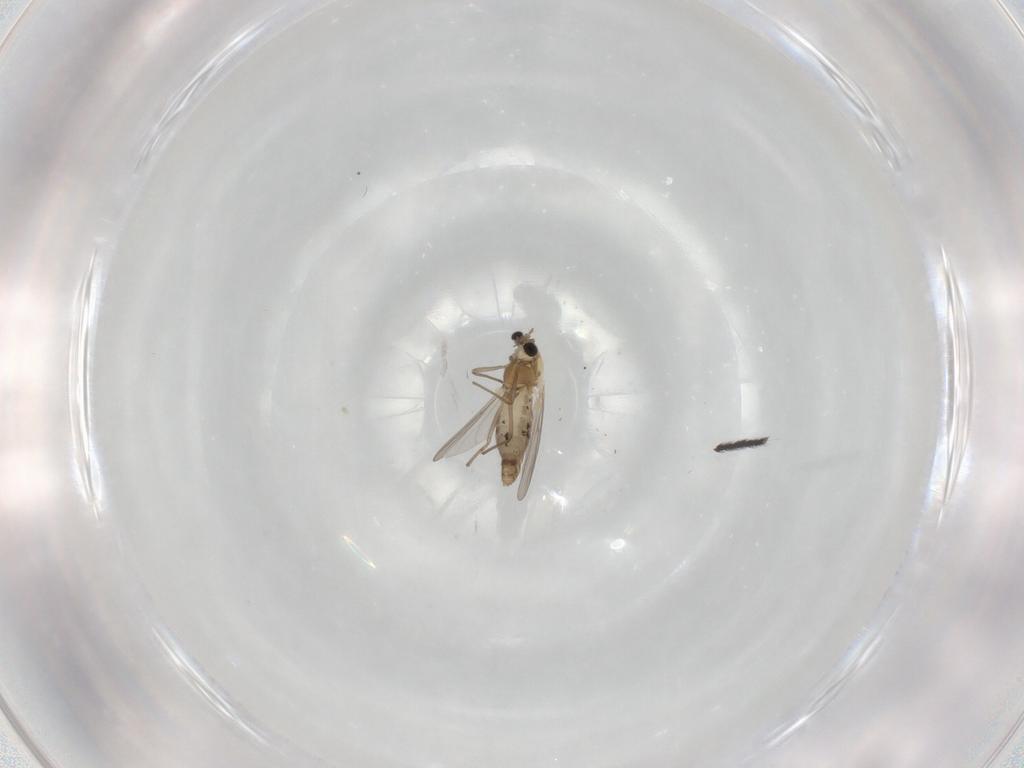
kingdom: Animalia
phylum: Arthropoda
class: Insecta
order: Diptera
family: Chironomidae
